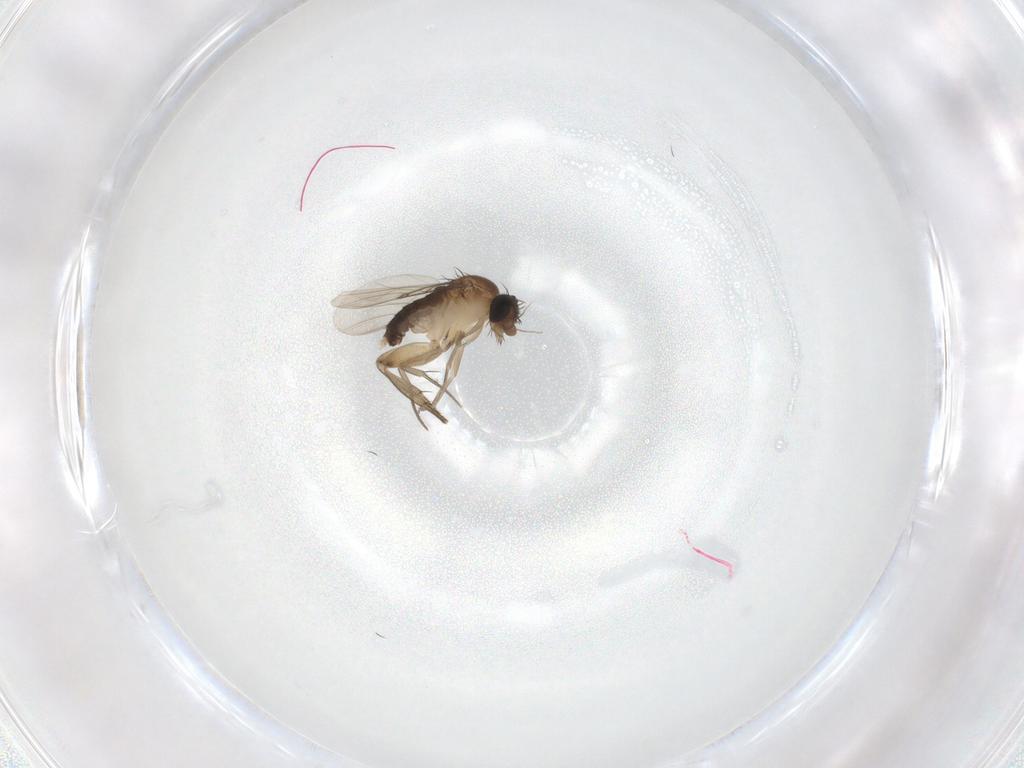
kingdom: Animalia
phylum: Arthropoda
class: Insecta
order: Diptera
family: Phoridae
